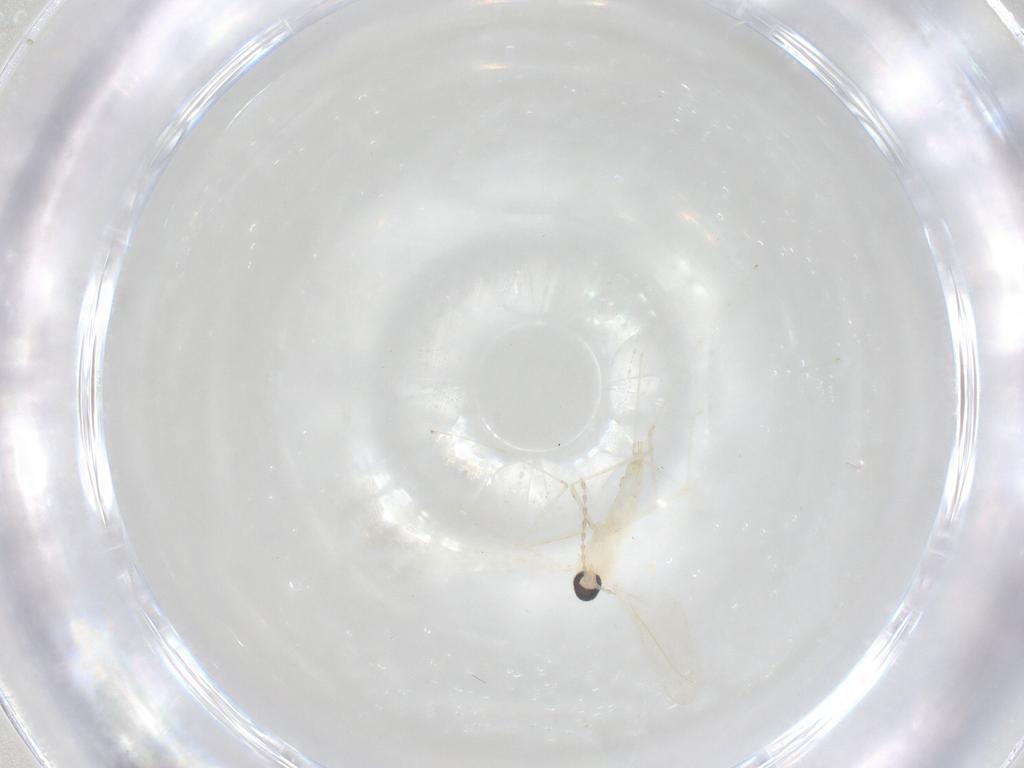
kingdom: Animalia
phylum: Arthropoda
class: Insecta
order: Diptera
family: Cecidomyiidae
